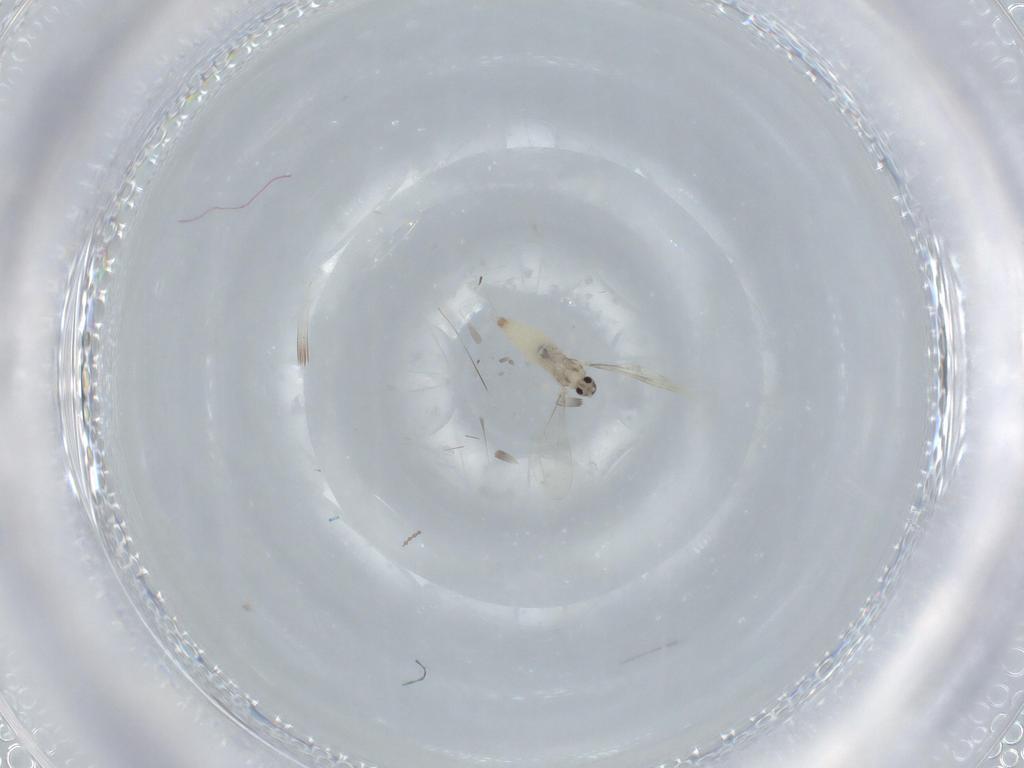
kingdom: Animalia
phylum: Arthropoda
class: Insecta
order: Diptera
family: Cecidomyiidae
